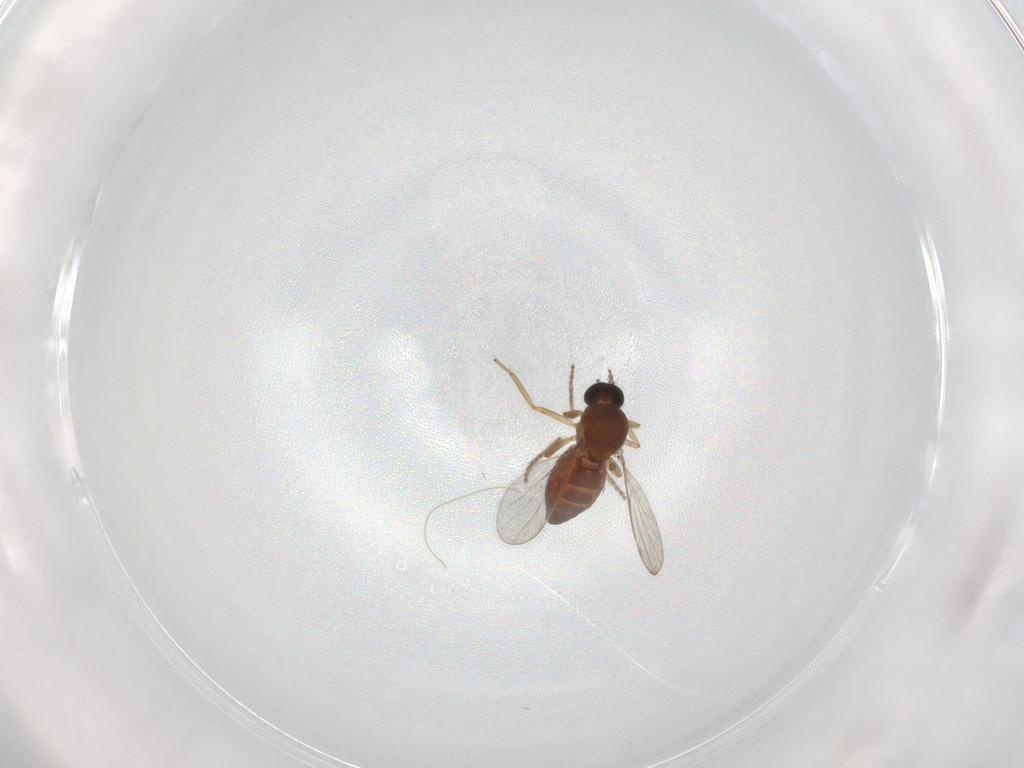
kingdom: Animalia
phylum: Arthropoda
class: Insecta
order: Diptera
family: Ceratopogonidae
